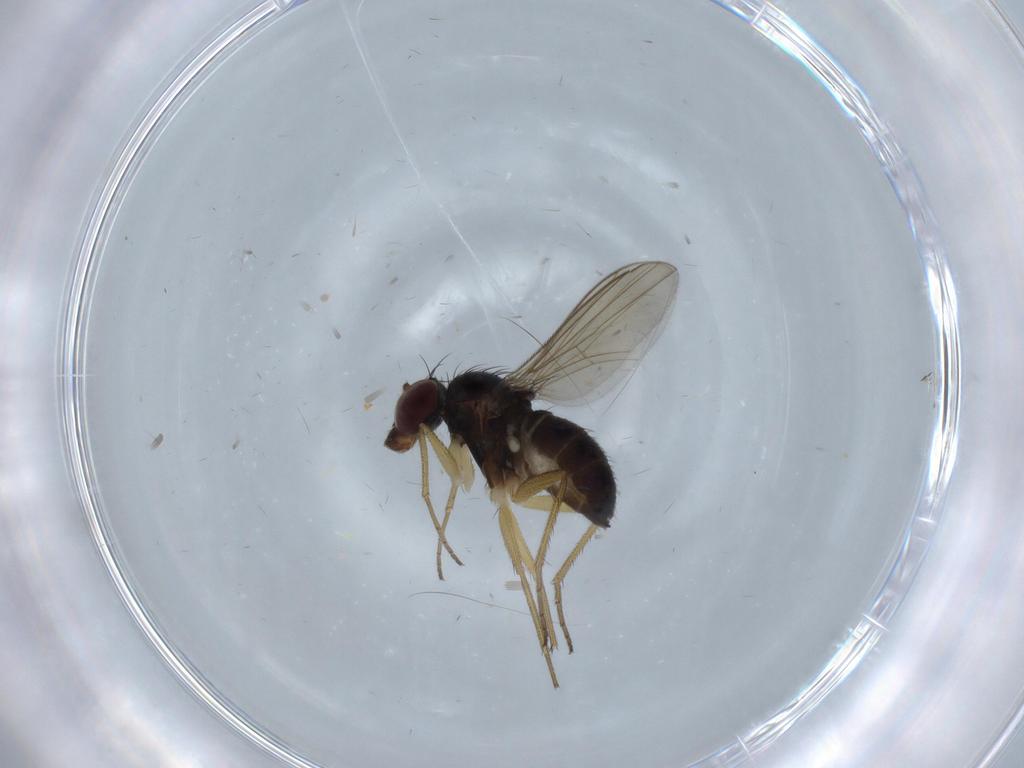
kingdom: Animalia
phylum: Arthropoda
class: Insecta
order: Diptera
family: Dolichopodidae
